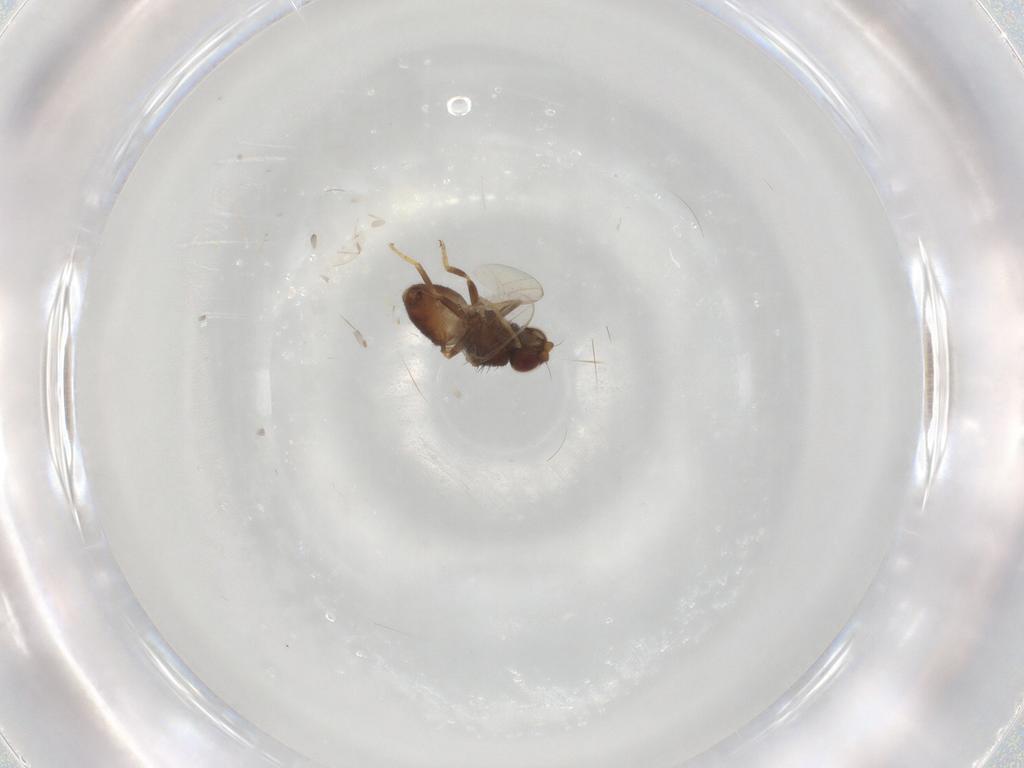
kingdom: Animalia
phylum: Arthropoda
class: Insecta
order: Diptera
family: Chloropidae
